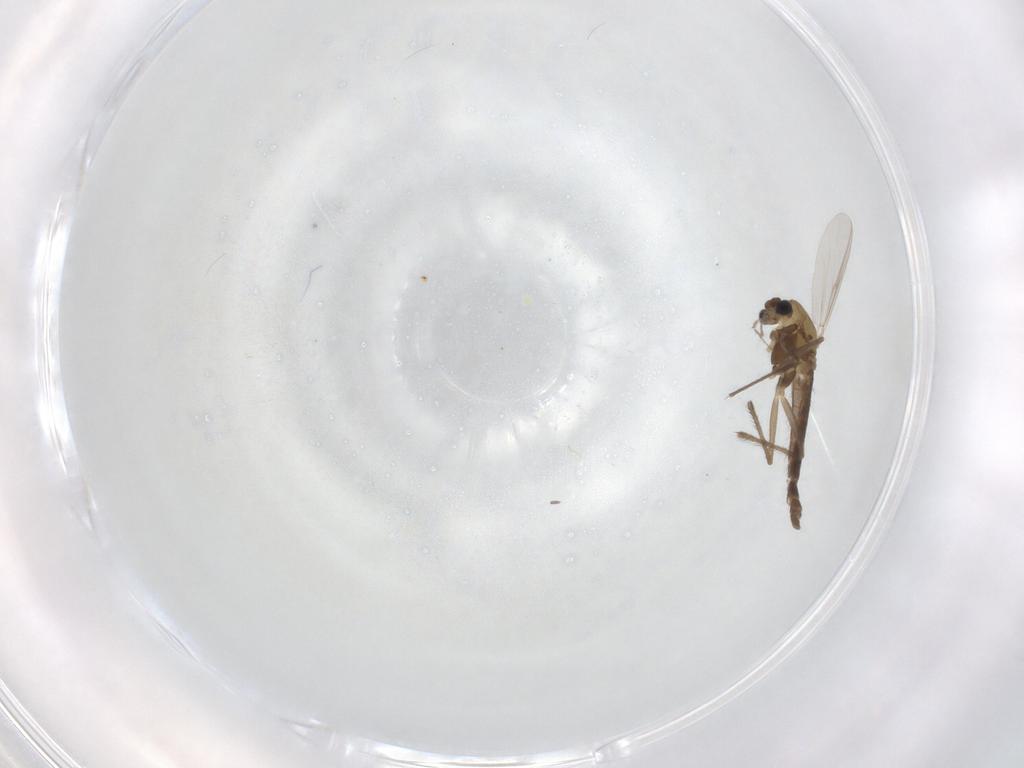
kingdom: Animalia
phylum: Arthropoda
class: Insecta
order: Diptera
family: Drosophilidae
